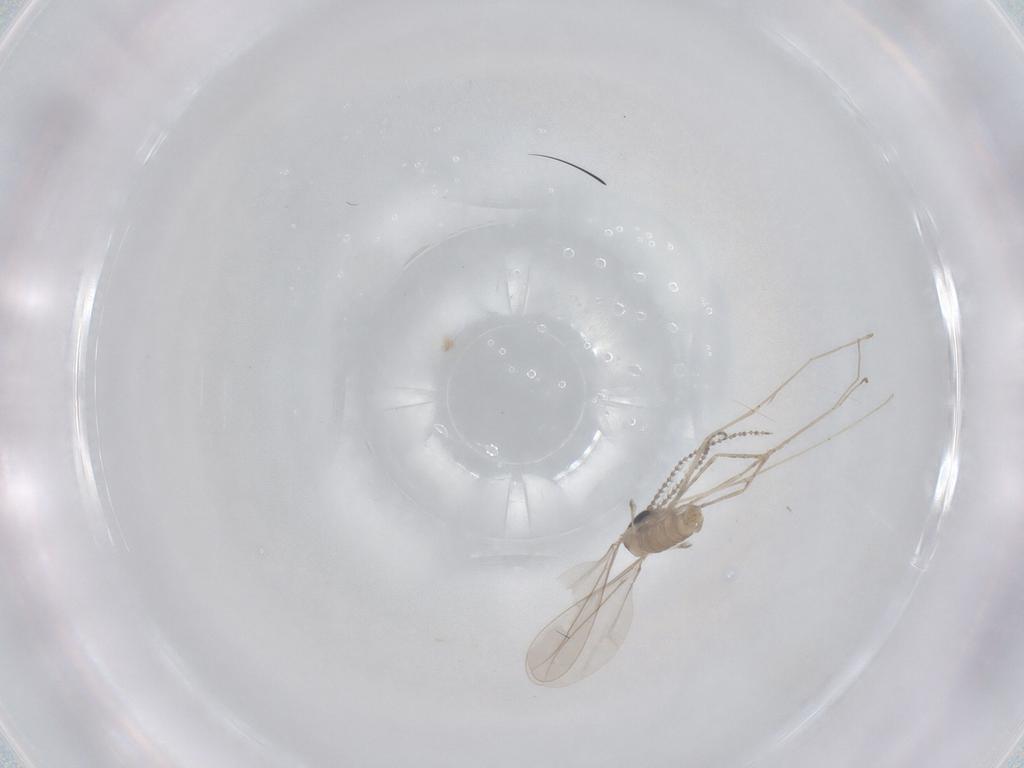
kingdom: Animalia
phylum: Arthropoda
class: Insecta
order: Diptera
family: Cecidomyiidae
